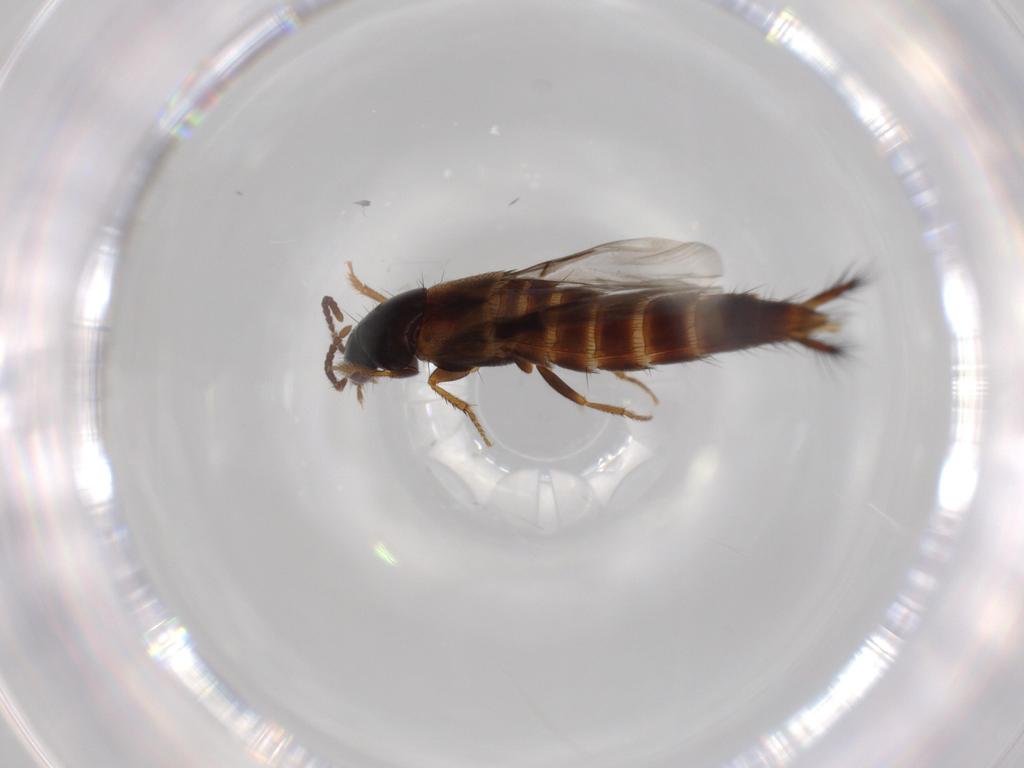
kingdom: Animalia
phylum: Arthropoda
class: Insecta
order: Coleoptera
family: Staphylinidae
